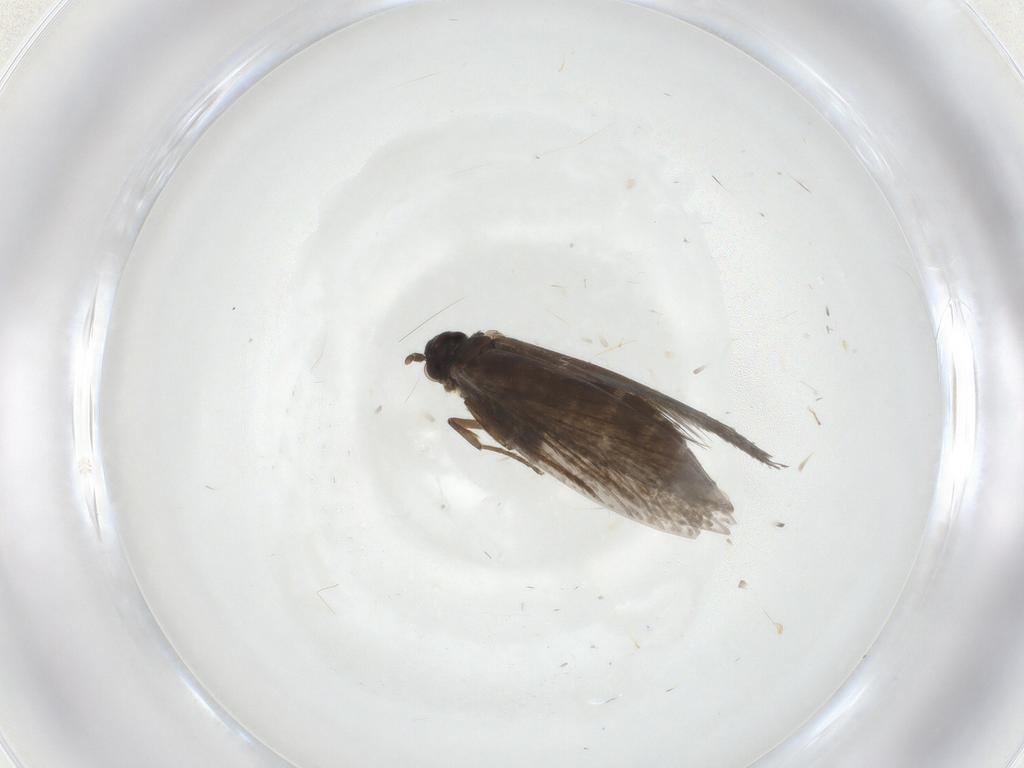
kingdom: Animalia
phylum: Arthropoda
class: Insecta
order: Lepidoptera
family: Micropterigidae
